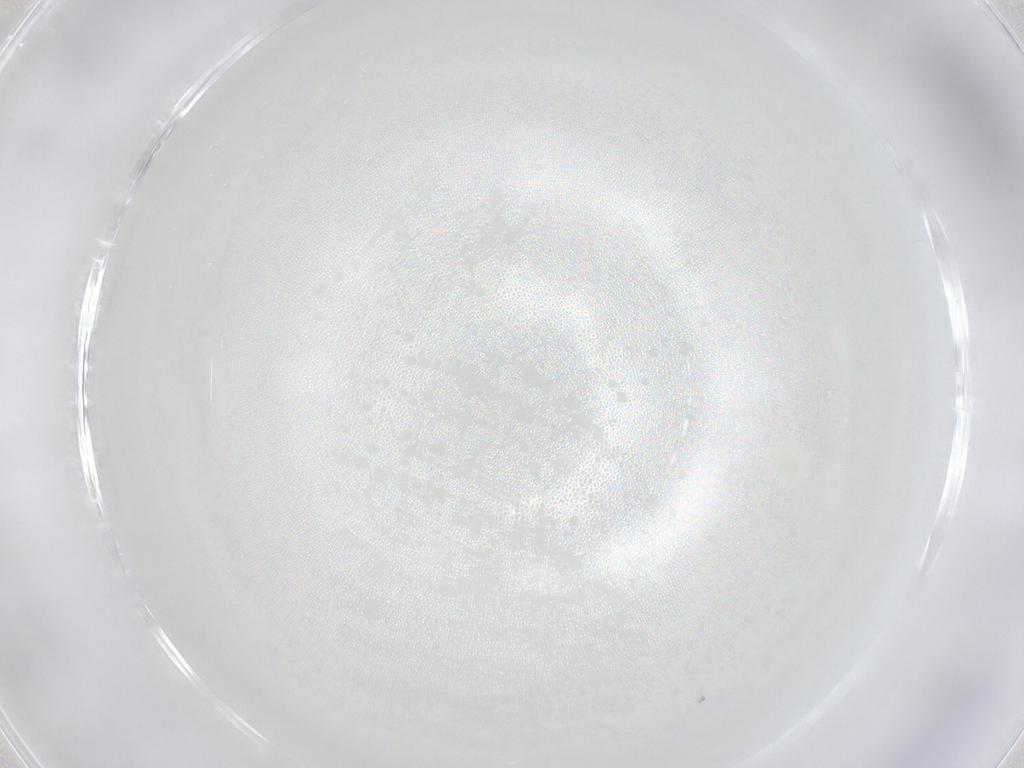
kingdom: Animalia
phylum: Arthropoda
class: Arachnida
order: Trombidiformes
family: Eupodidae
